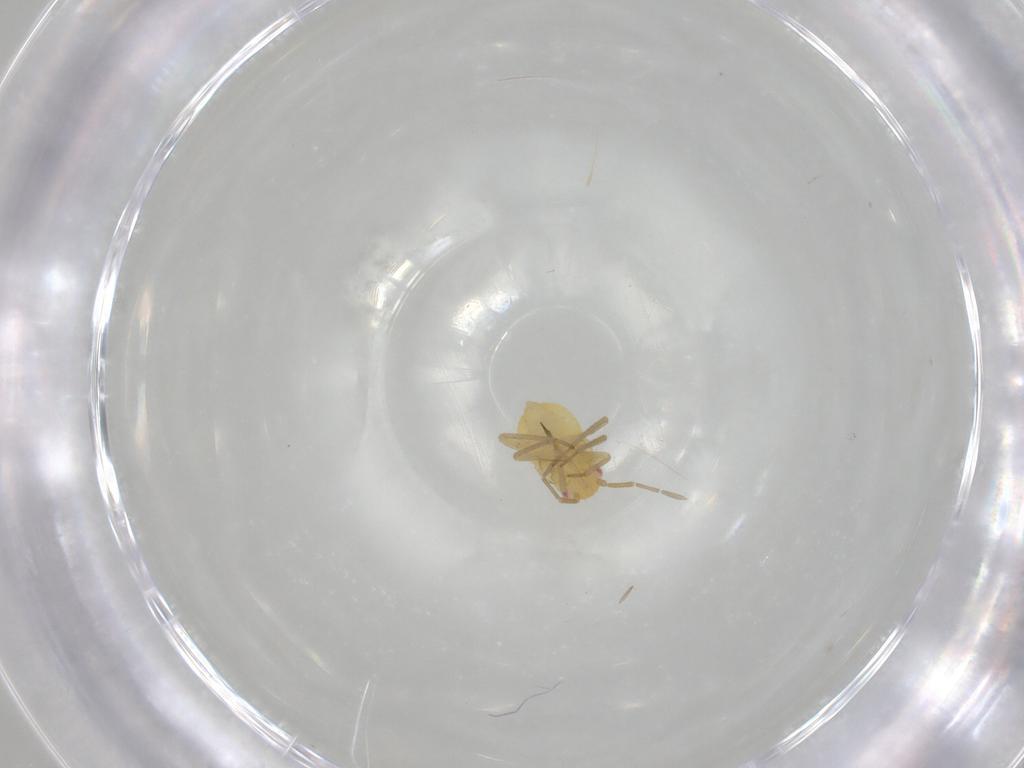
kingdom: Animalia
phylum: Arthropoda
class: Insecta
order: Hemiptera
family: Miridae
